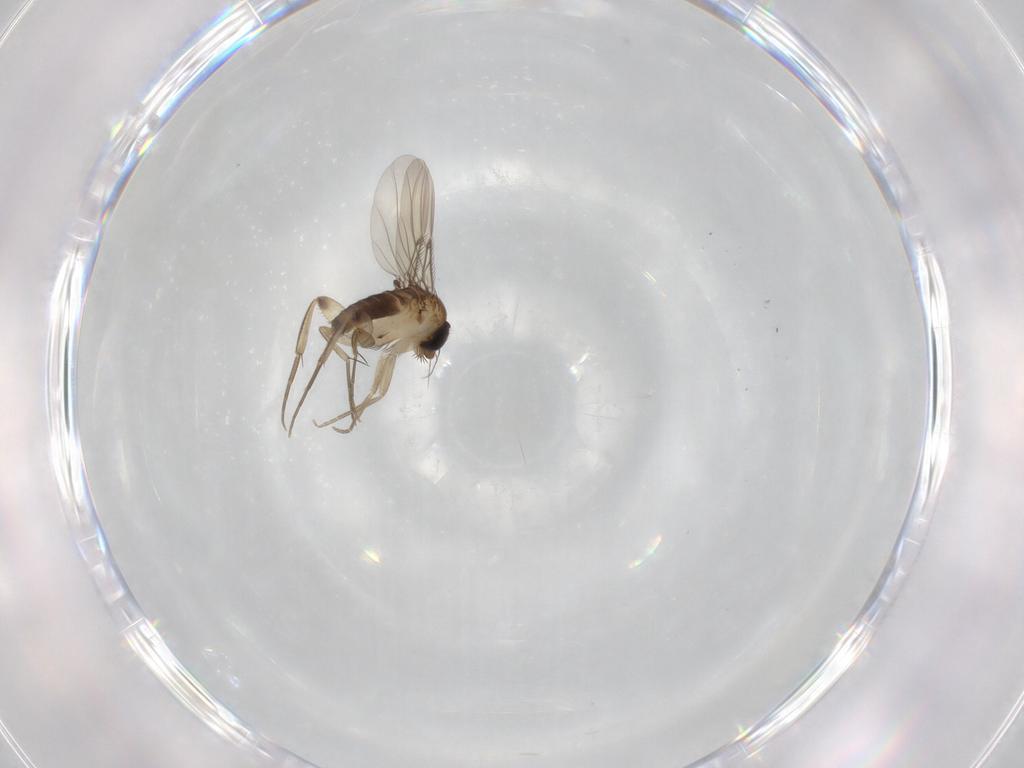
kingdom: Animalia
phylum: Arthropoda
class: Insecta
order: Diptera
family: Phoridae
